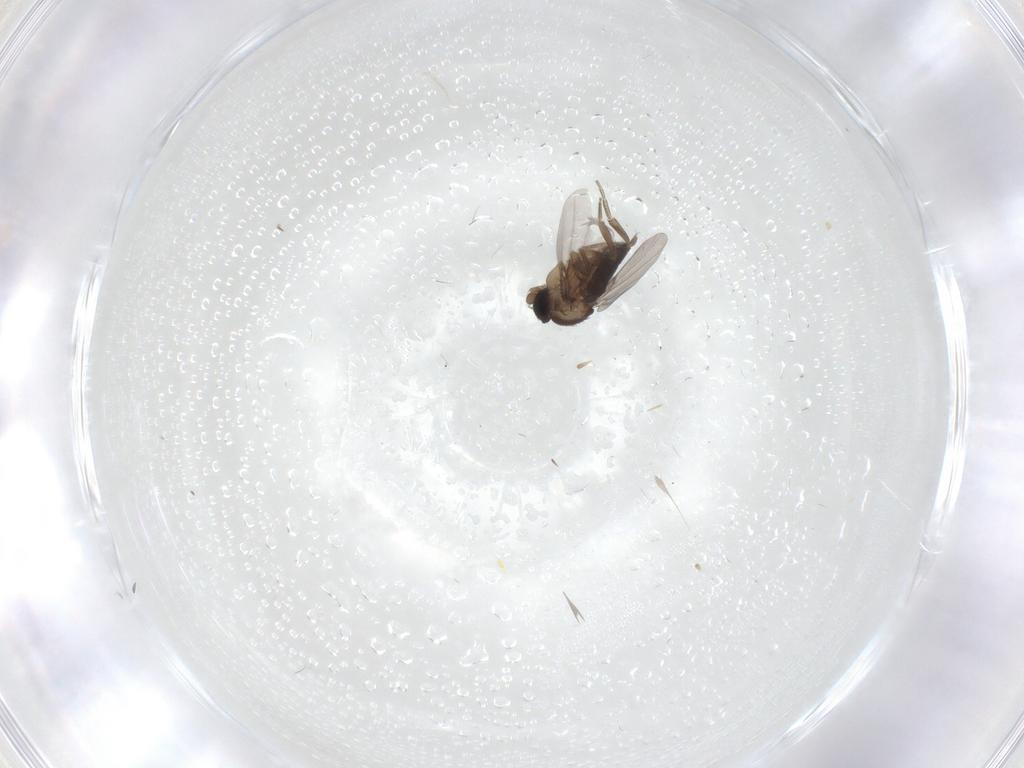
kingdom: Animalia
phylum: Arthropoda
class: Insecta
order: Diptera
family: Phoridae
